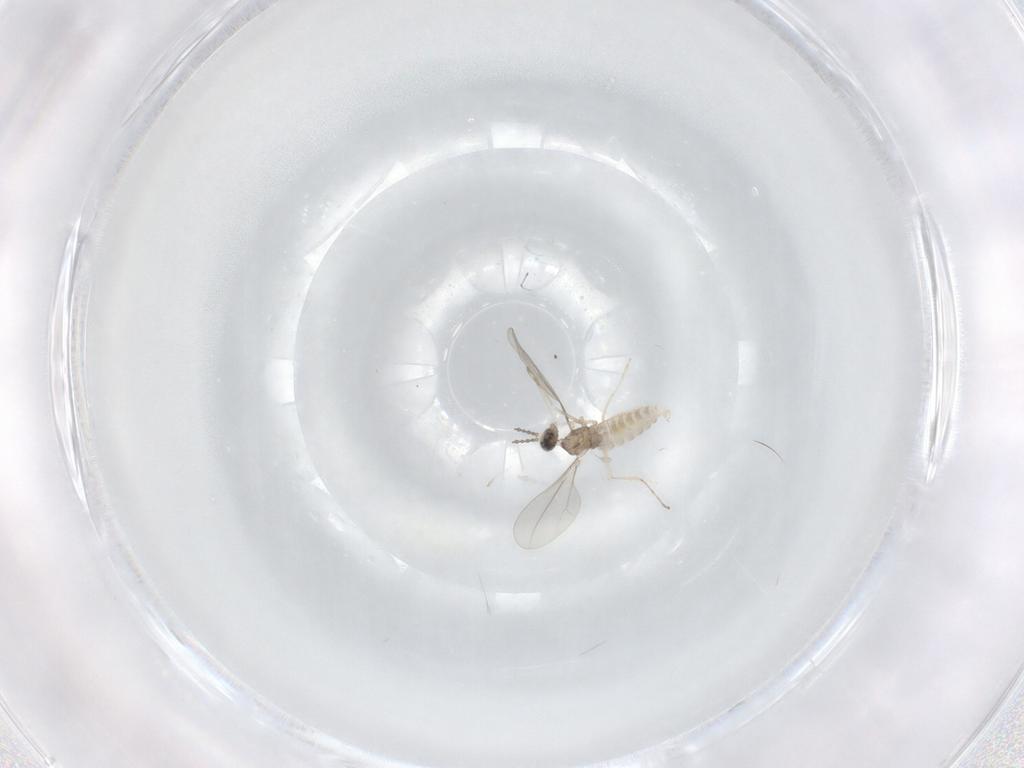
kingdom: Animalia
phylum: Arthropoda
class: Insecta
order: Diptera
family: Cecidomyiidae
